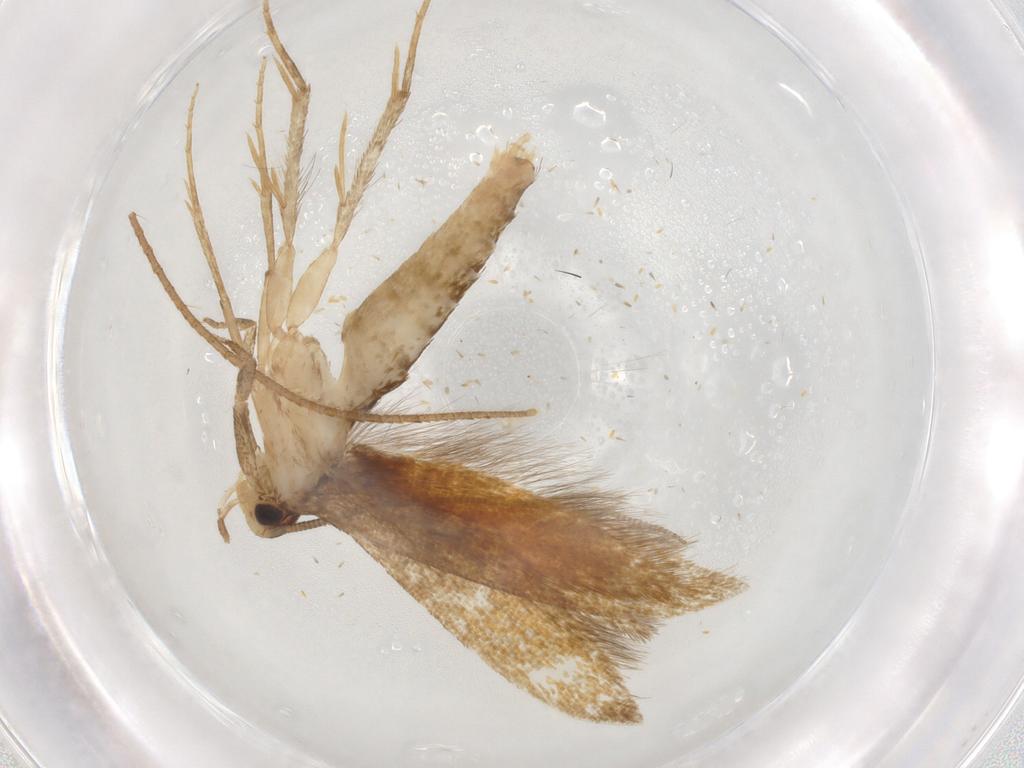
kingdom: Animalia
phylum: Arthropoda
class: Insecta
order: Lepidoptera
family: Tineidae
